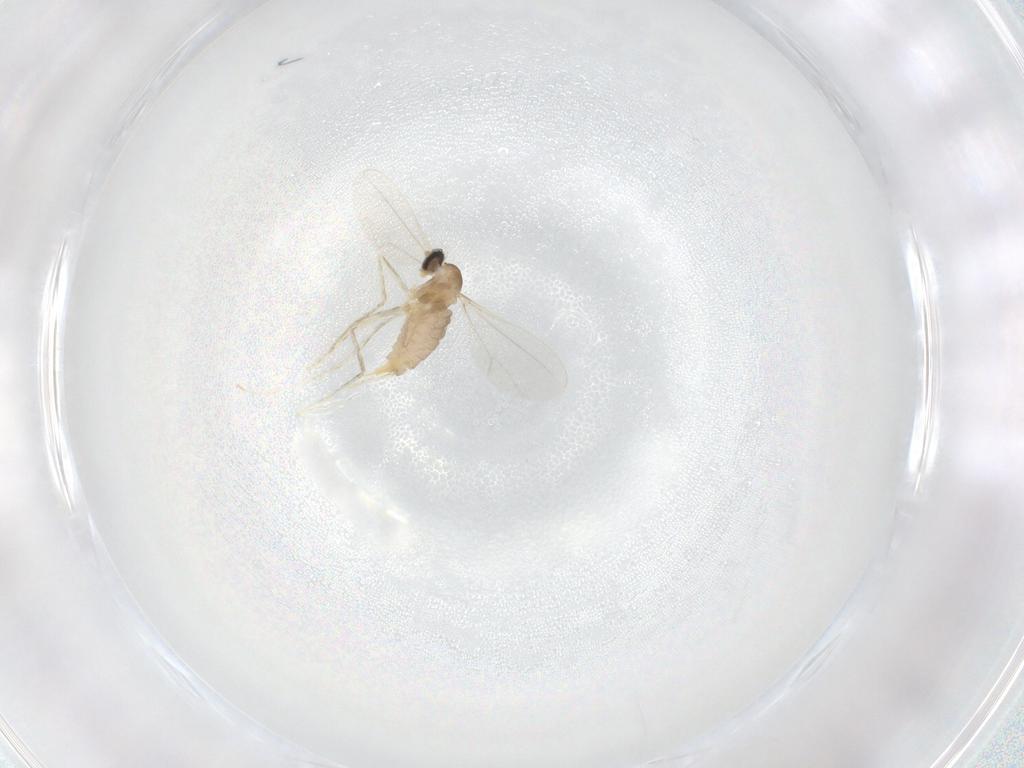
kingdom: Animalia
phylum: Arthropoda
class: Insecta
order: Diptera
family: Cecidomyiidae
